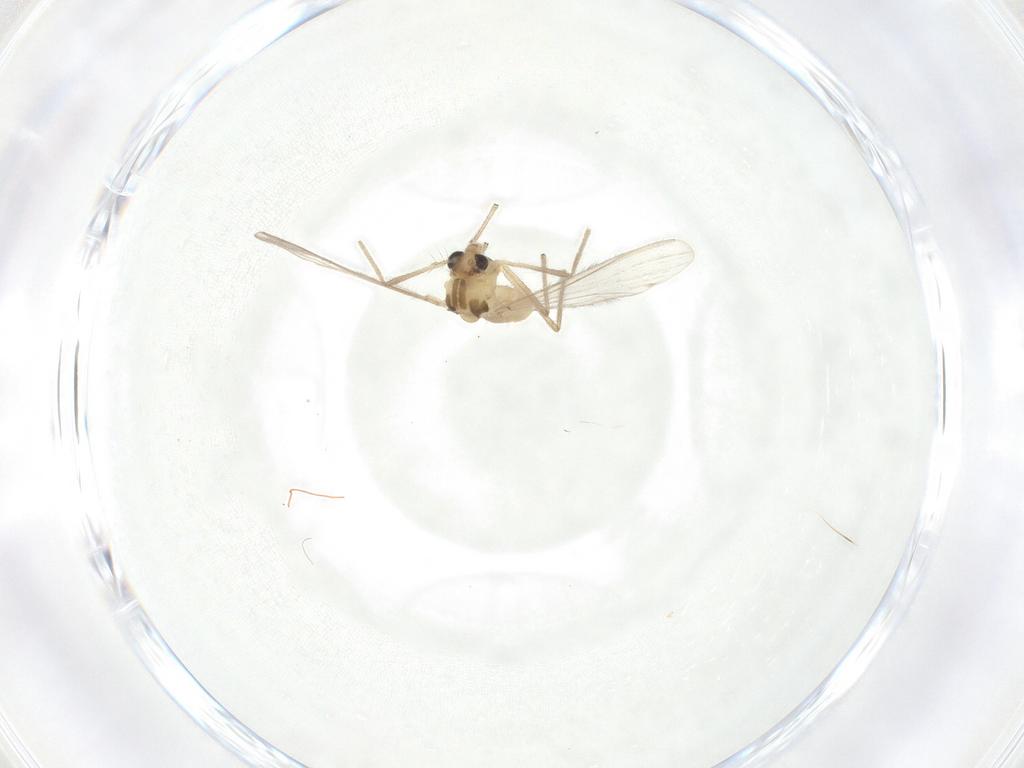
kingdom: Animalia
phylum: Arthropoda
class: Insecta
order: Diptera
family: Chironomidae
